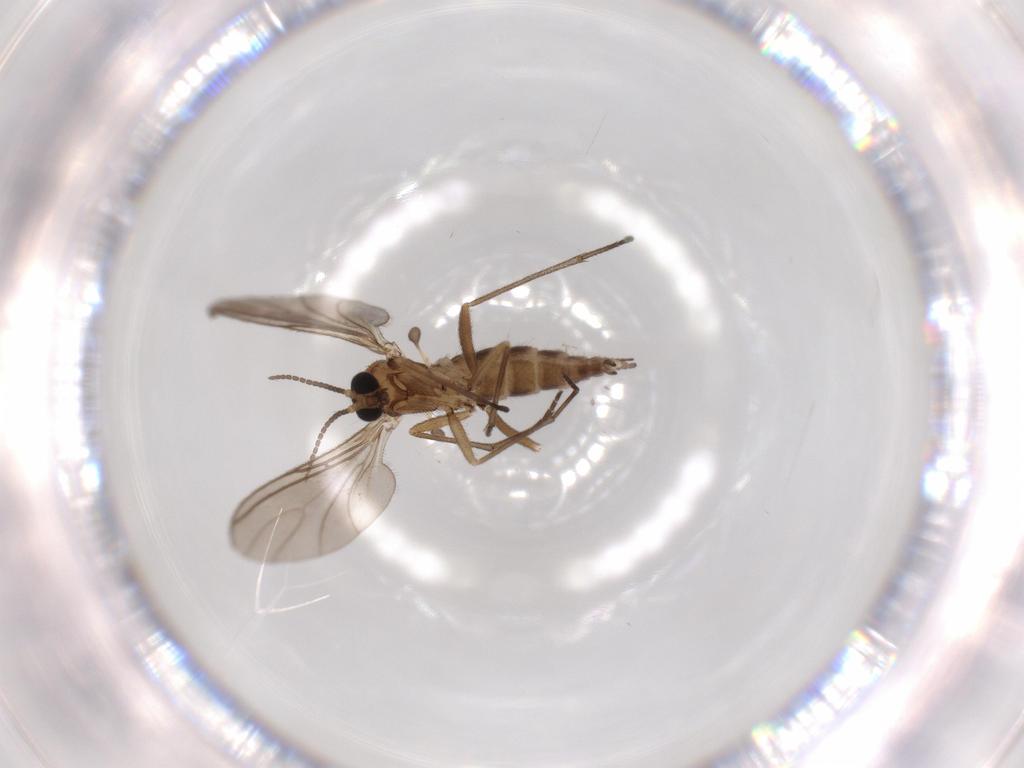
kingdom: Animalia
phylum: Arthropoda
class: Insecta
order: Diptera
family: Sciaridae
